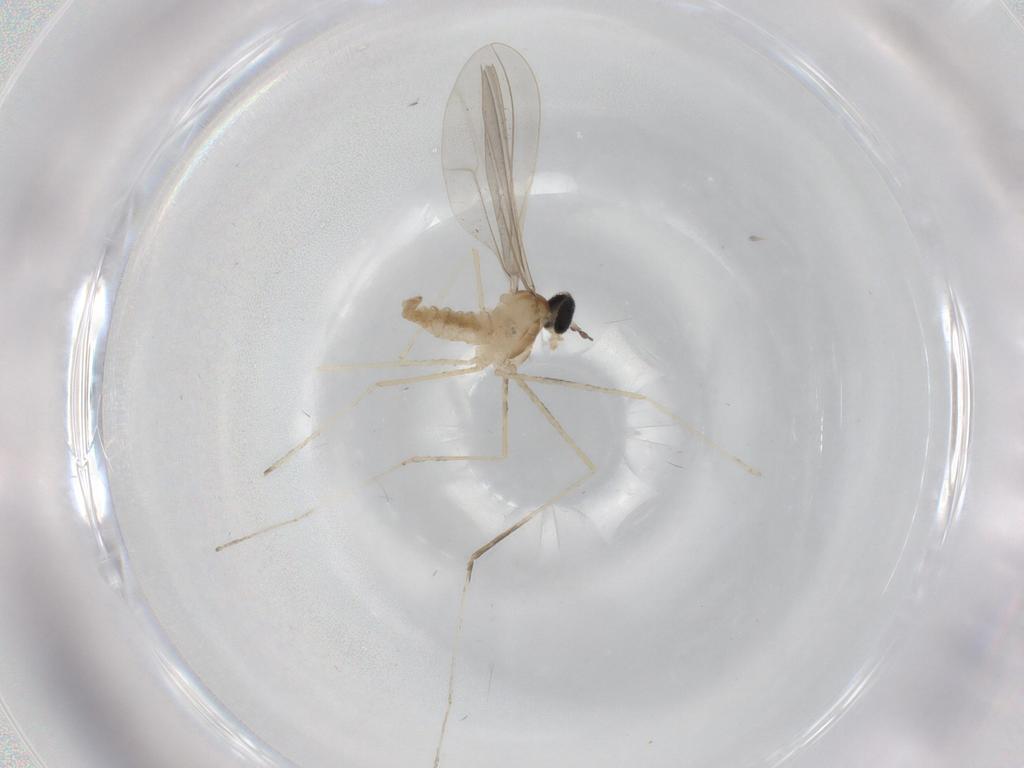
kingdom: Animalia
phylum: Arthropoda
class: Insecta
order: Diptera
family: Cecidomyiidae
